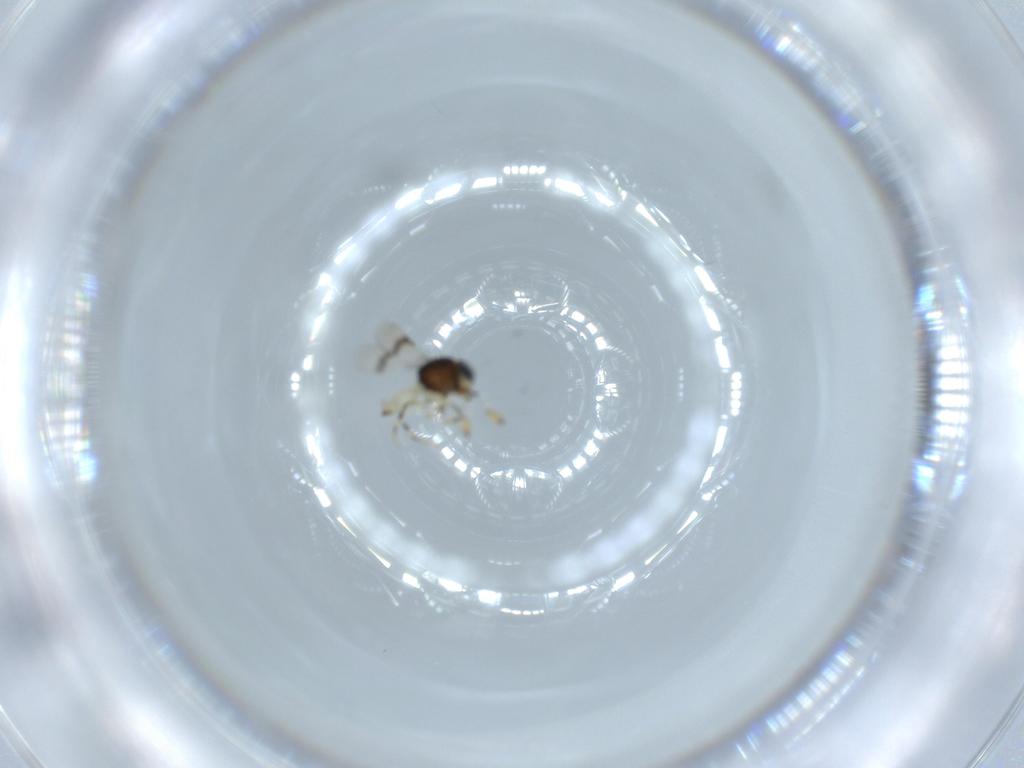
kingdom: Animalia
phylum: Arthropoda
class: Insecta
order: Hymenoptera
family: Scelionidae
